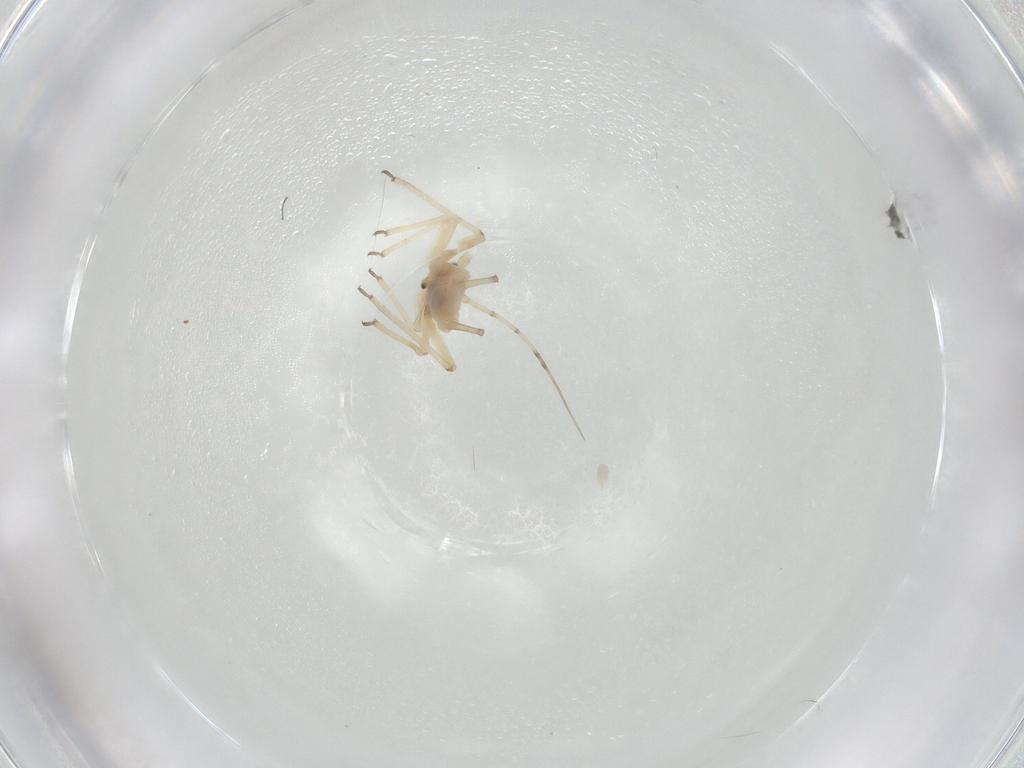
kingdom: Animalia
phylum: Arthropoda
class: Insecta
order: Hemiptera
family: Aphididae
